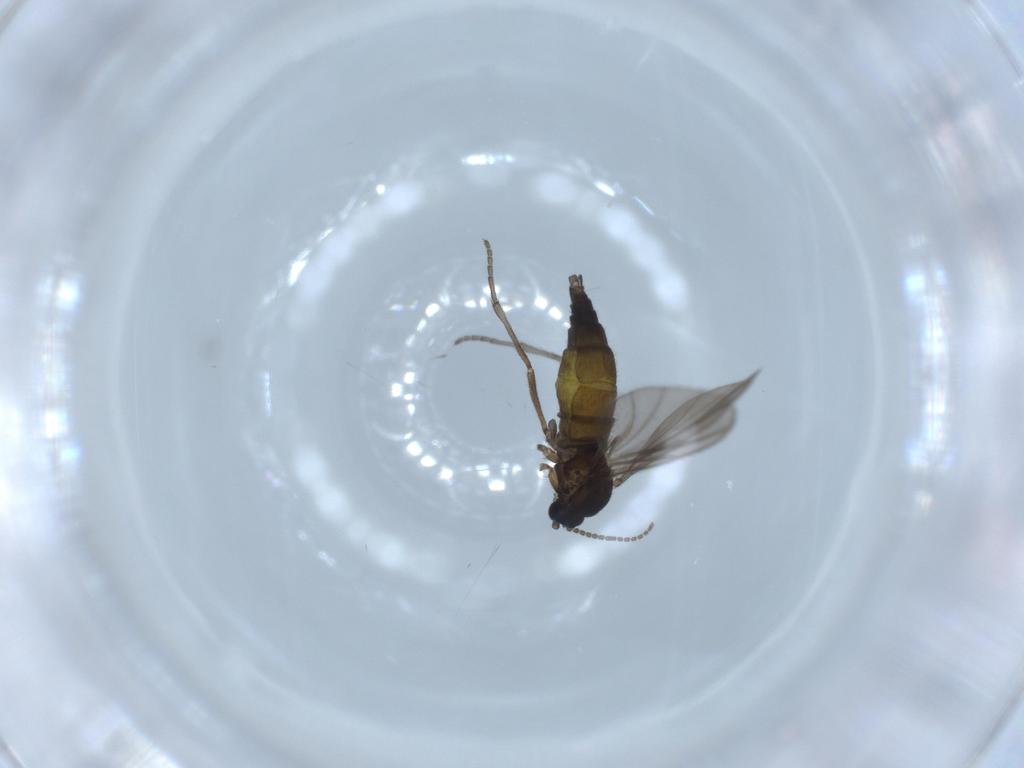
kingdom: Animalia
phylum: Arthropoda
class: Insecta
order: Diptera
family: Sciaridae
